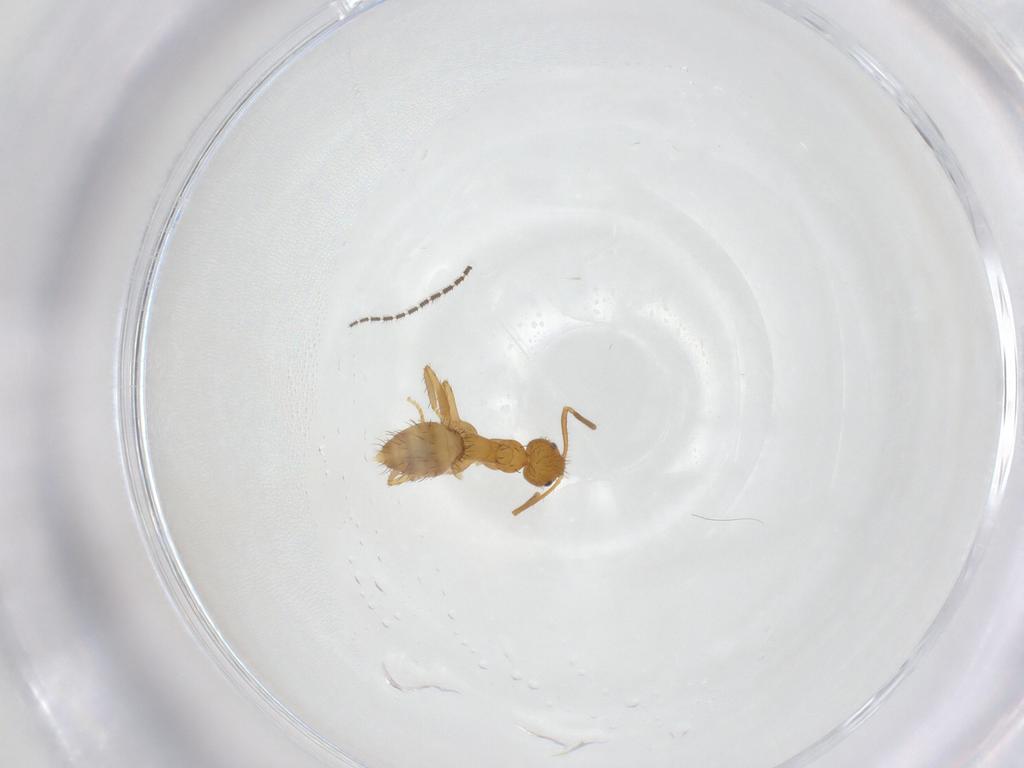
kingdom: Animalia
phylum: Arthropoda
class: Insecta
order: Hymenoptera
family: Formicidae
